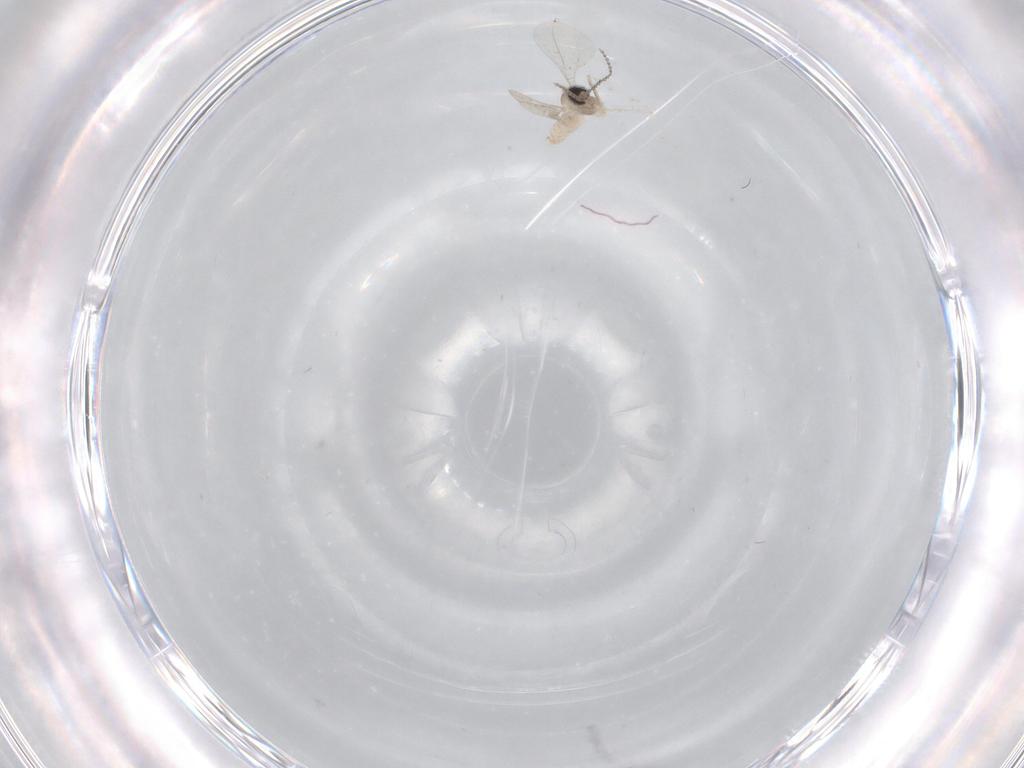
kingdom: Animalia
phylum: Arthropoda
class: Insecta
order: Diptera
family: Cecidomyiidae
